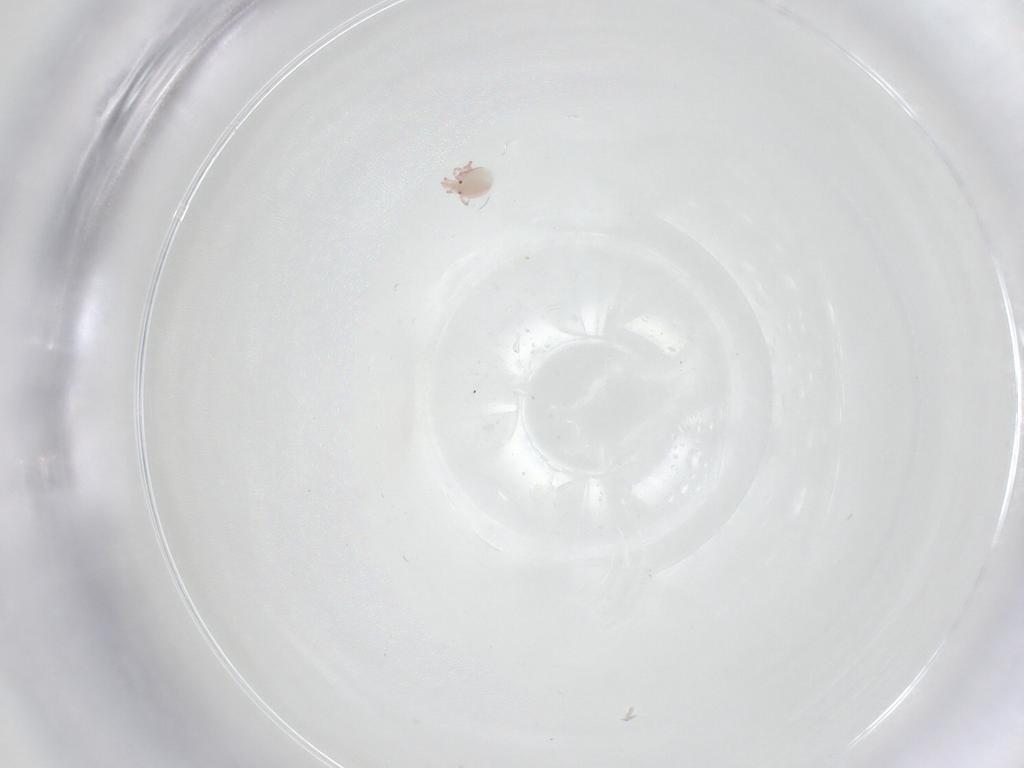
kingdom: Animalia
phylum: Arthropoda
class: Arachnida
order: Trombidiformes
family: Pionidae
